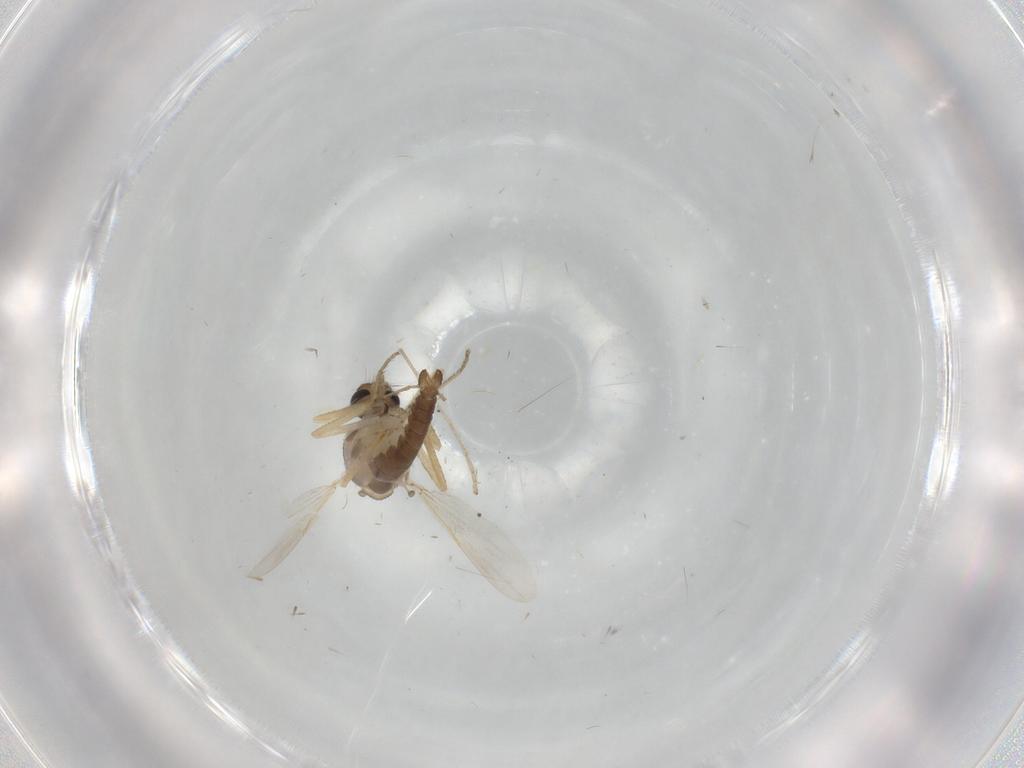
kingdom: Animalia
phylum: Arthropoda
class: Insecta
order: Diptera
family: Ceratopogonidae
